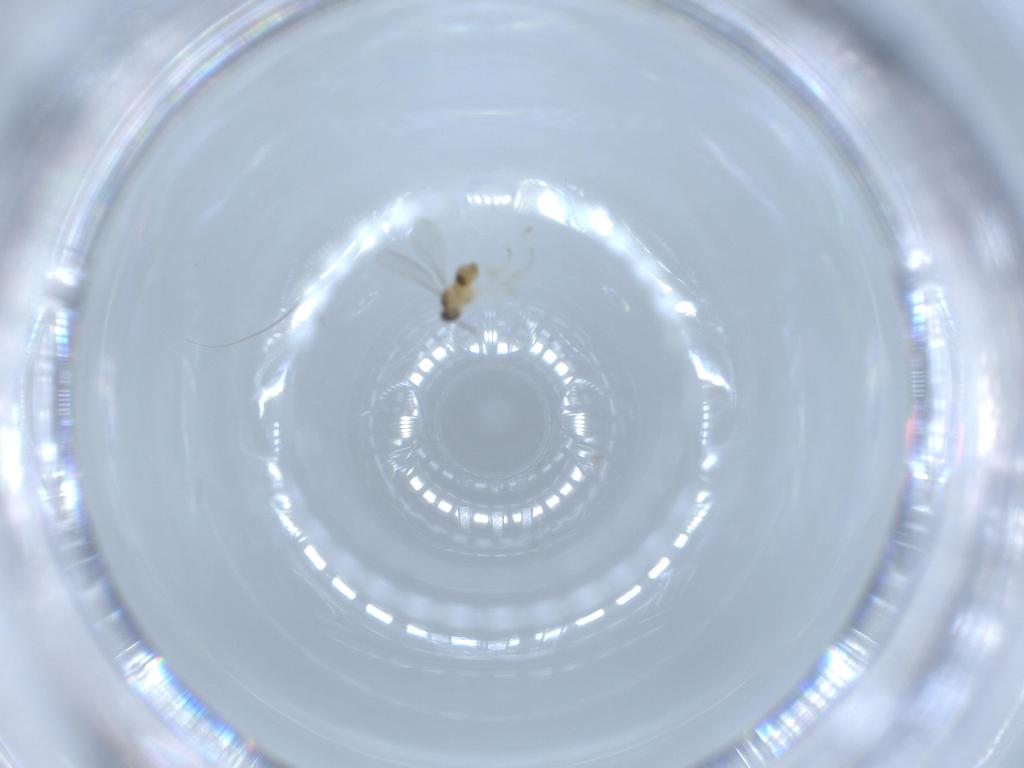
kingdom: Animalia
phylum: Arthropoda
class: Insecta
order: Diptera
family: Cecidomyiidae
